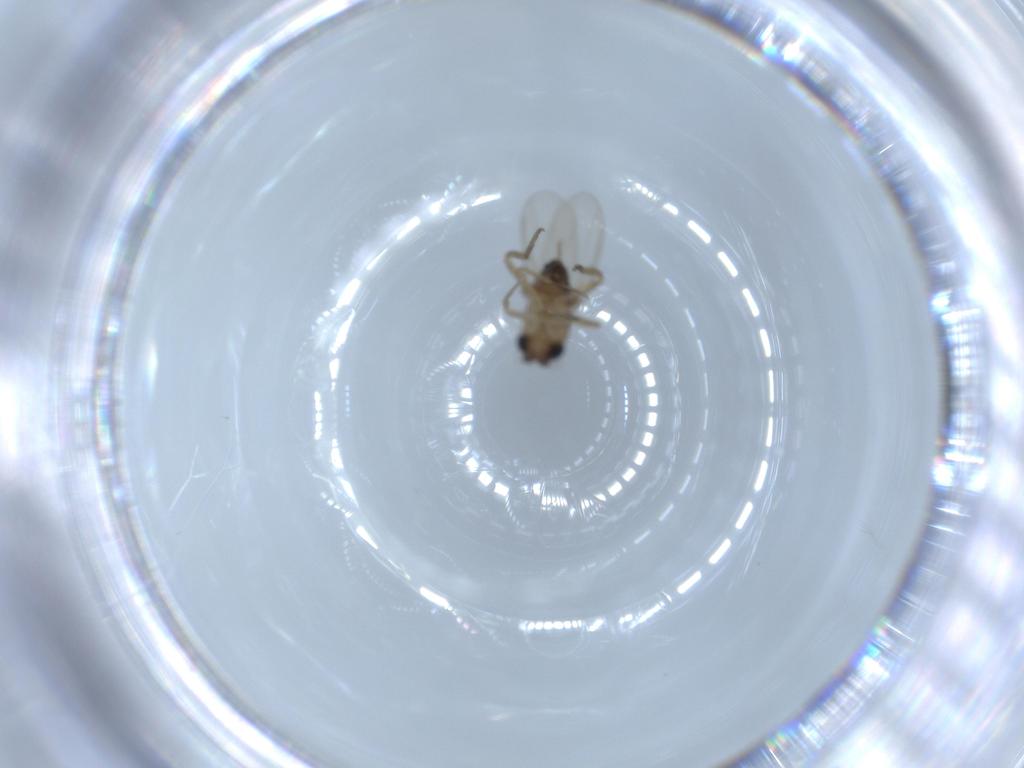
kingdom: Animalia
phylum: Arthropoda
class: Insecta
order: Diptera
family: Phoridae
